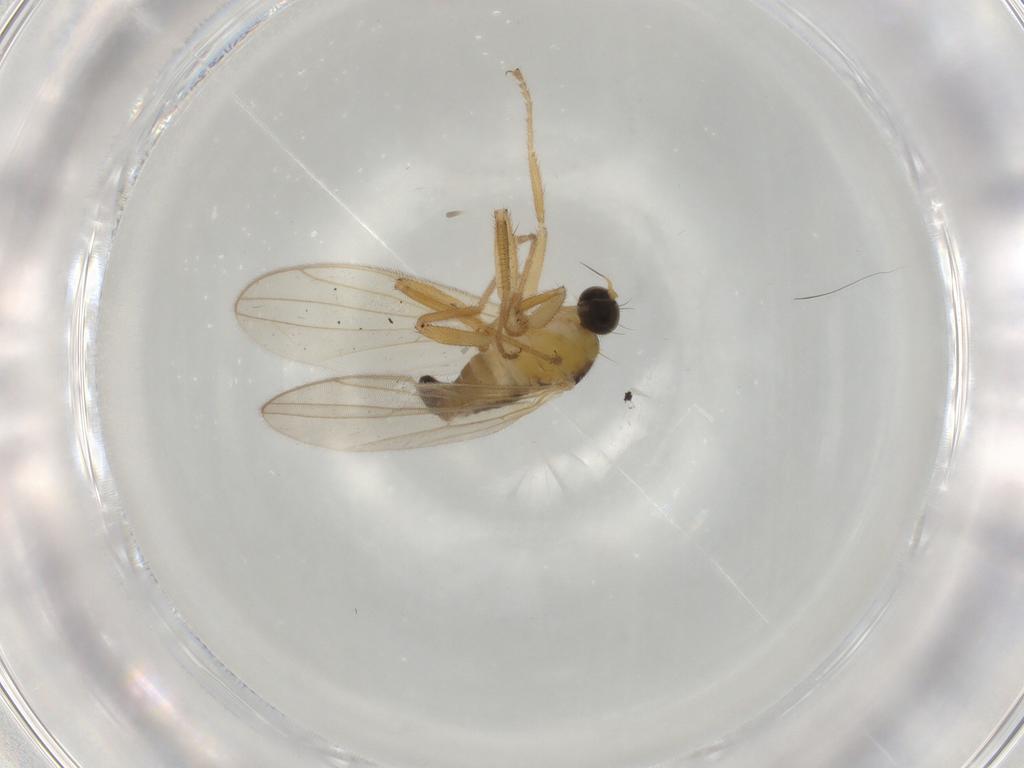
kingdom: Animalia
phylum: Arthropoda
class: Insecta
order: Diptera
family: Hybotidae
